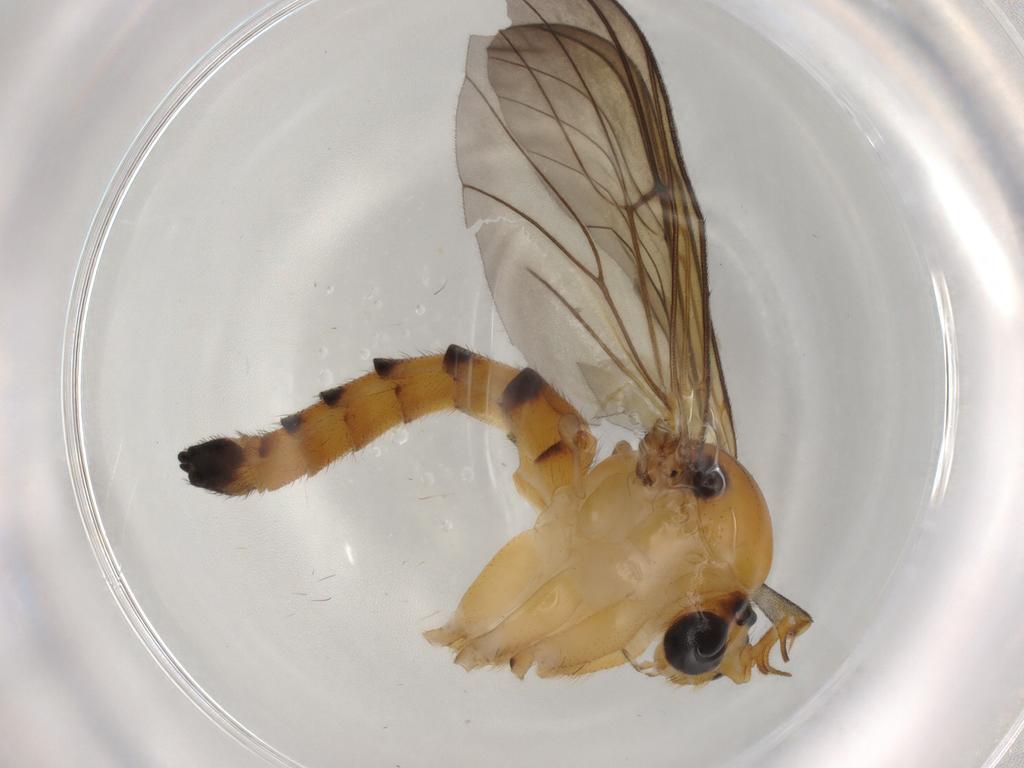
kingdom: Animalia
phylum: Arthropoda
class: Insecta
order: Diptera
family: Chironomidae
